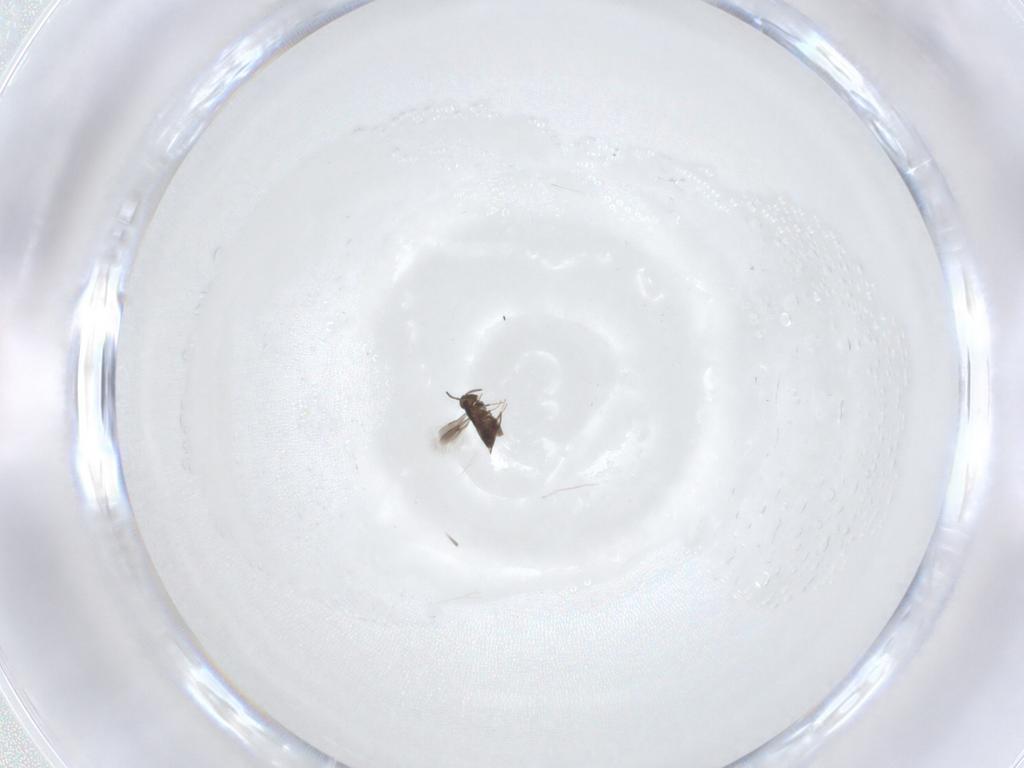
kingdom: Animalia
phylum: Arthropoda
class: Insecta
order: Hymenoptera
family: Signiphoridae
